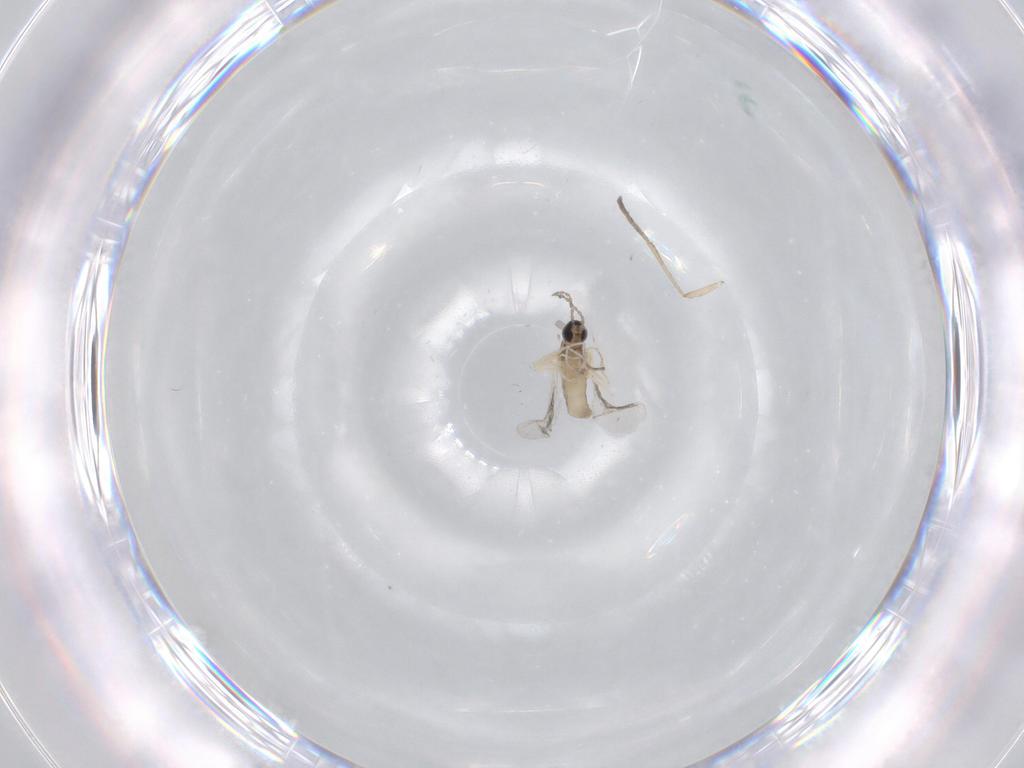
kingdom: Animalia
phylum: Arthropoda
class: Insecta
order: Diptera
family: Cecidomyiidae
